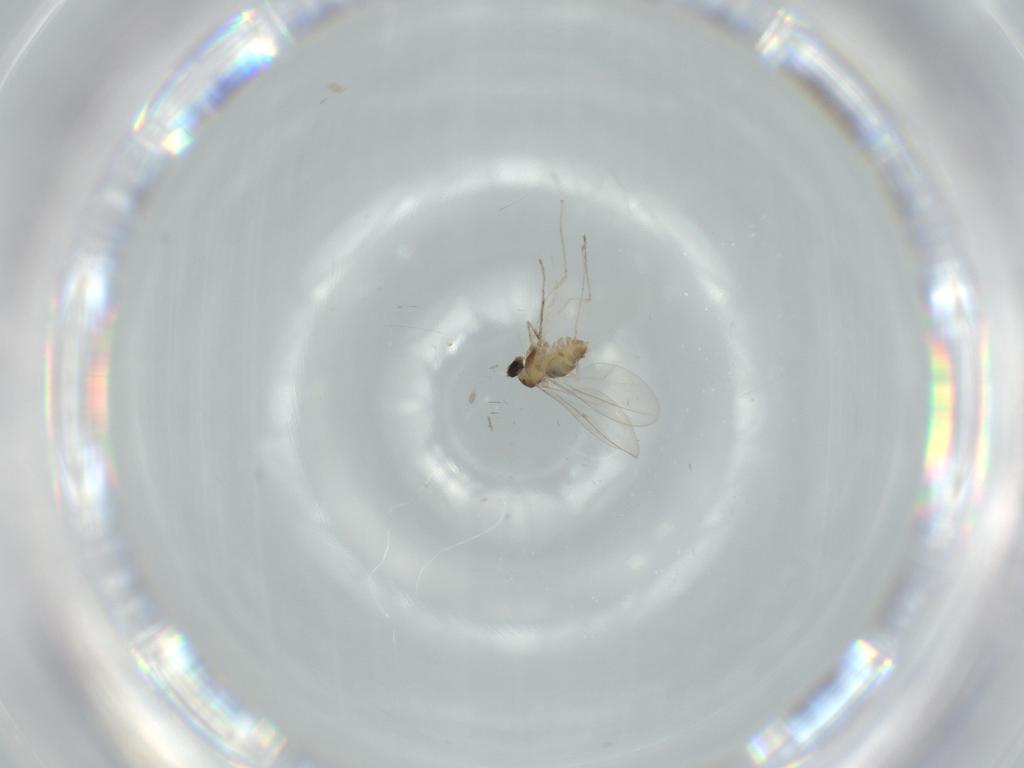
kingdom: Animalia
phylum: Arthropoda
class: Insecta
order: Diptera
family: Cecidomyiidae
